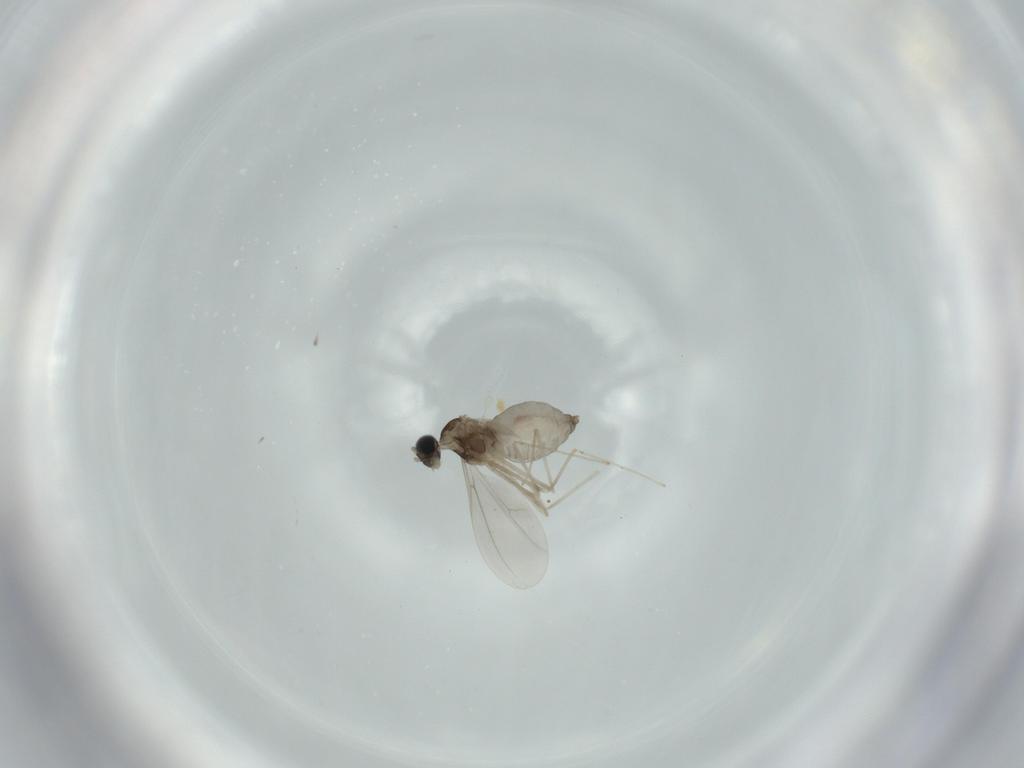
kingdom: Animalia
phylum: Arthropoda
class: Insecta
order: Diptera
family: Cecidomyiidae
